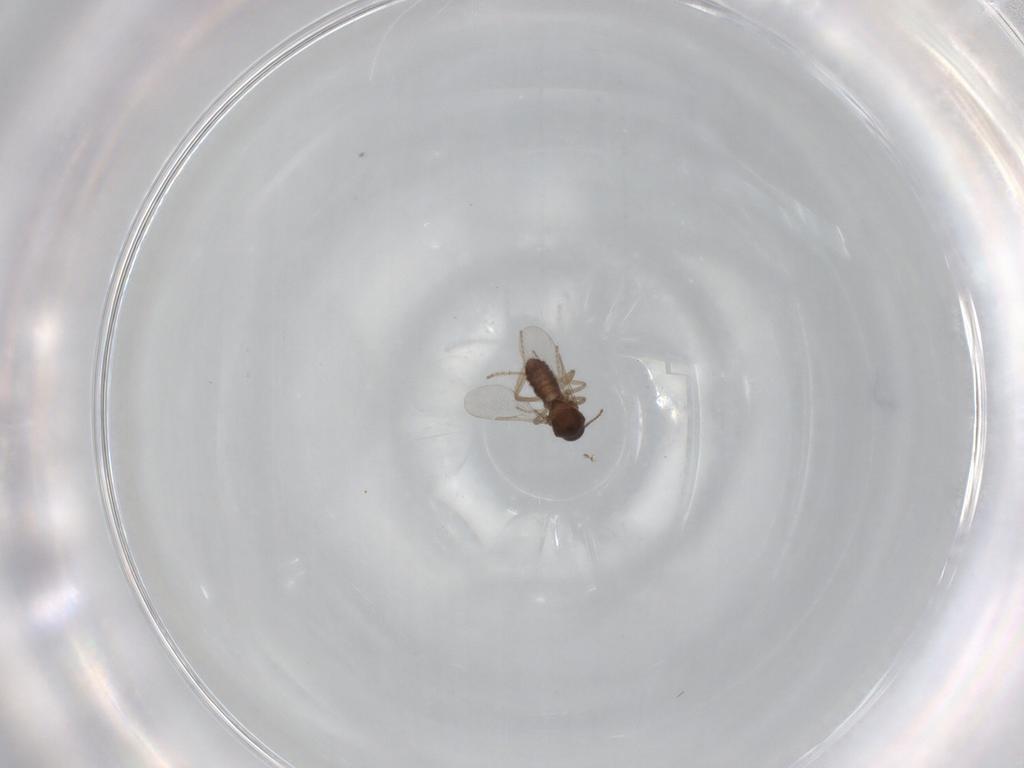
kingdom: Animalia
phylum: Arthropoda
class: Insecta
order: Diptera
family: Ceratopogonidae
